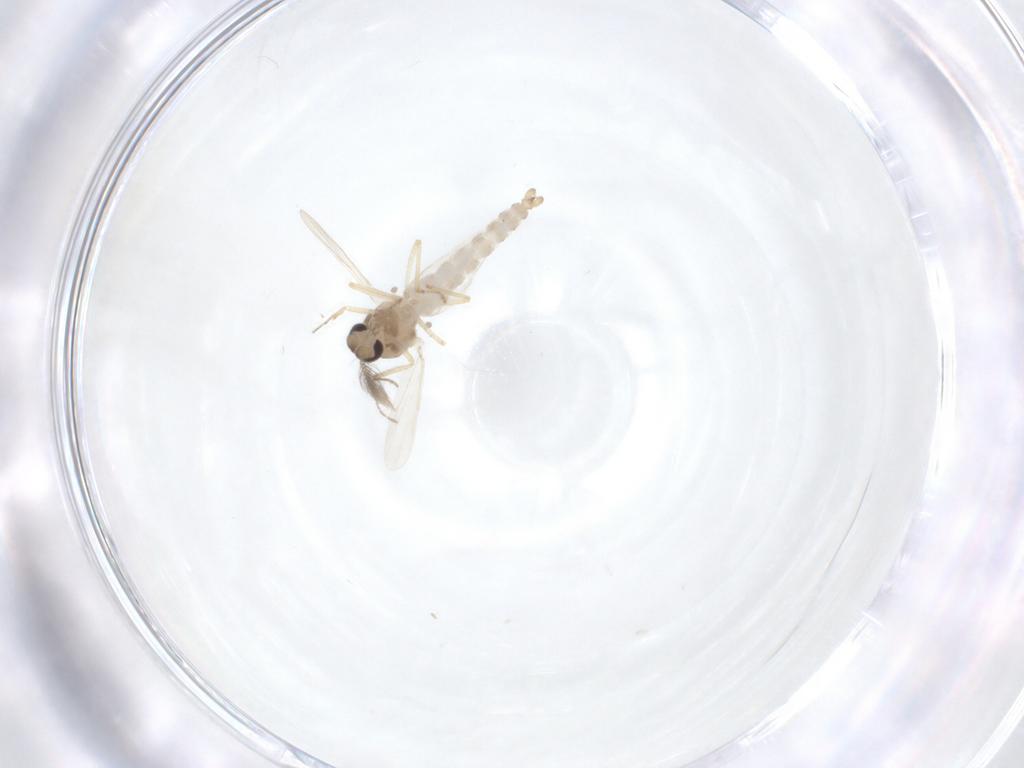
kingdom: Animalia
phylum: Arthropoda
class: Insecta
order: Diptera
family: Ceratopogonidae
